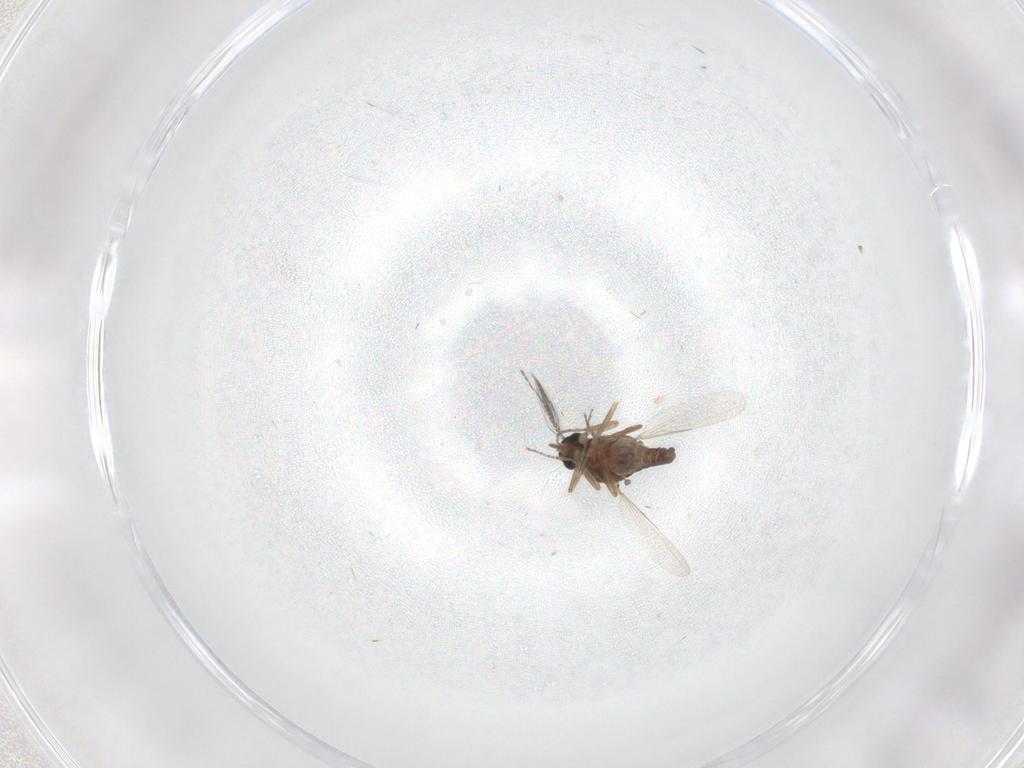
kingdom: Animalia
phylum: Arthropoda
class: Insecta
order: Diptera
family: Ceratopogonidae
